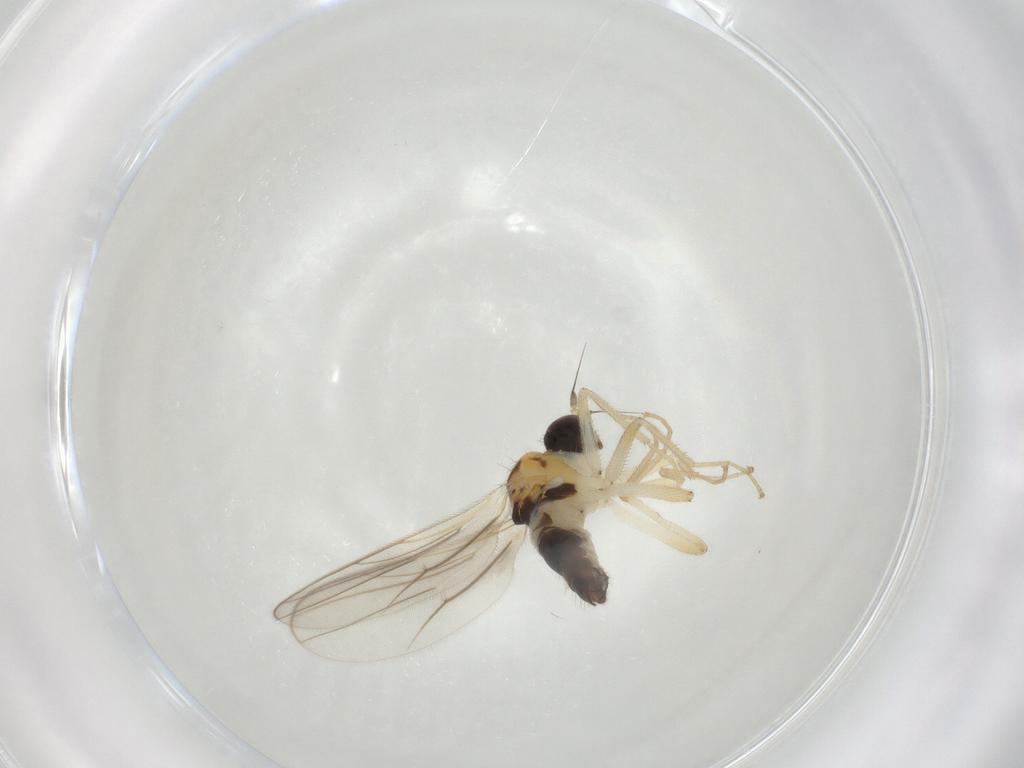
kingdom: Animalia
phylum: Arthropoda
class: Insecta
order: Diptera
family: Hybotidae
